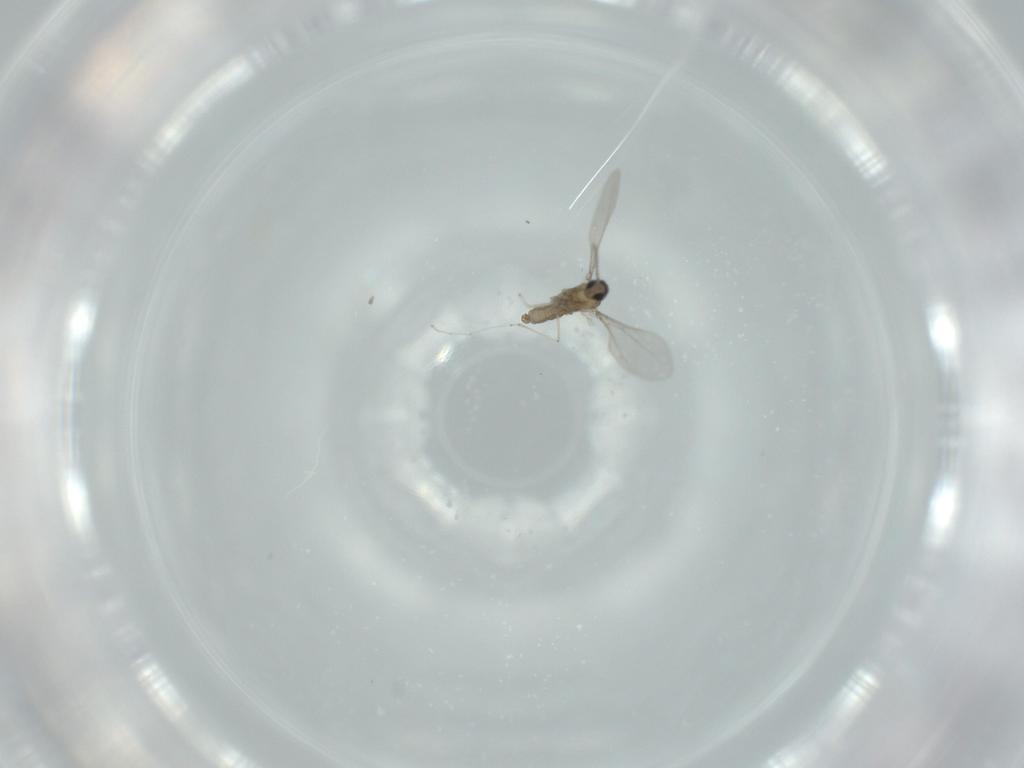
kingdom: Animalia
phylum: Arthropoda
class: Insecta
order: Diptera
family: Cecidomyiidae
